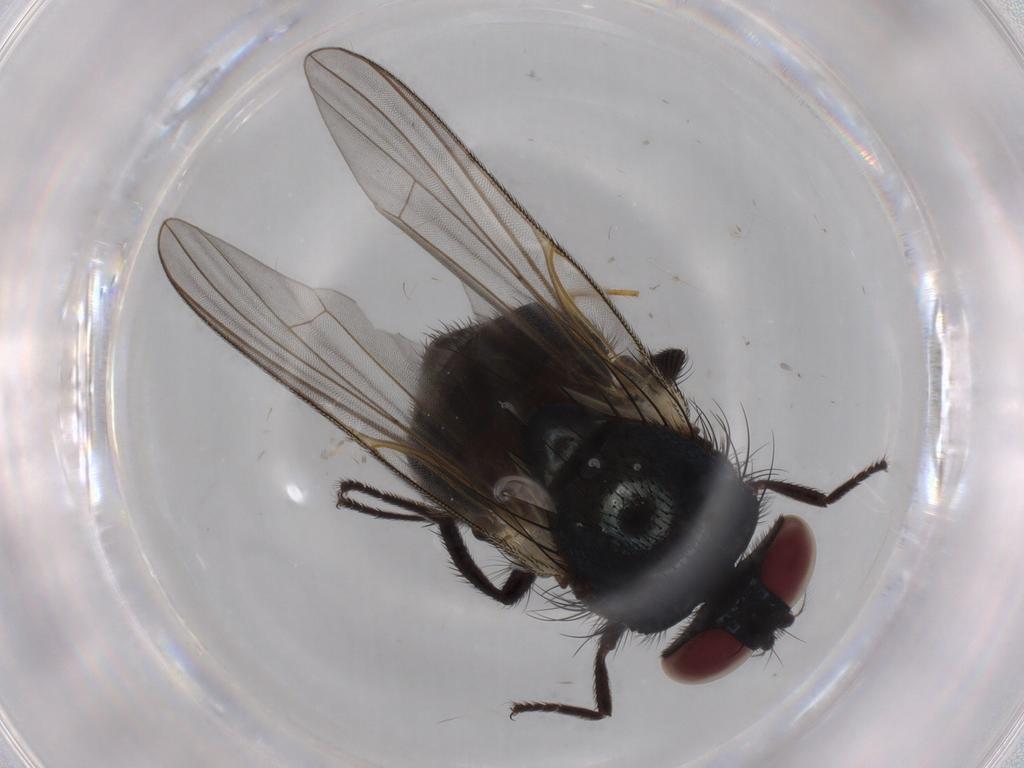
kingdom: Animalia
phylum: Arthropoda
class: Insecta
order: Diptera
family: Lonchaeidae
